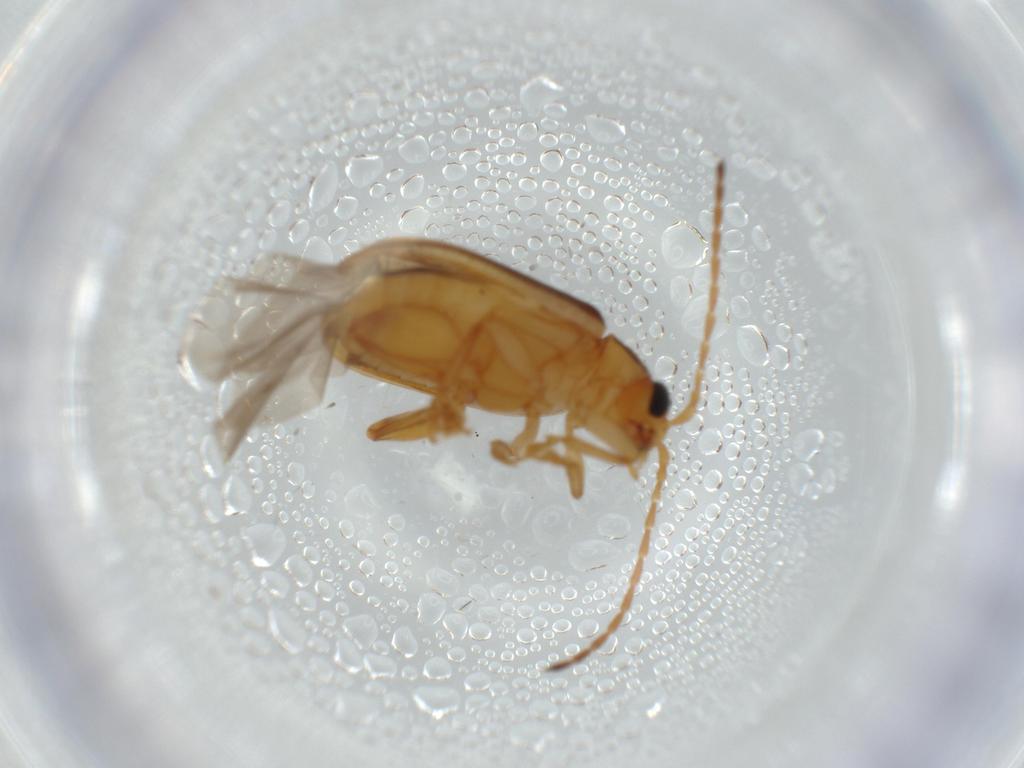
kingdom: Animalia
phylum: Arthropoda
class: Insecta
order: Coleoptera
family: Chrysomelidae
